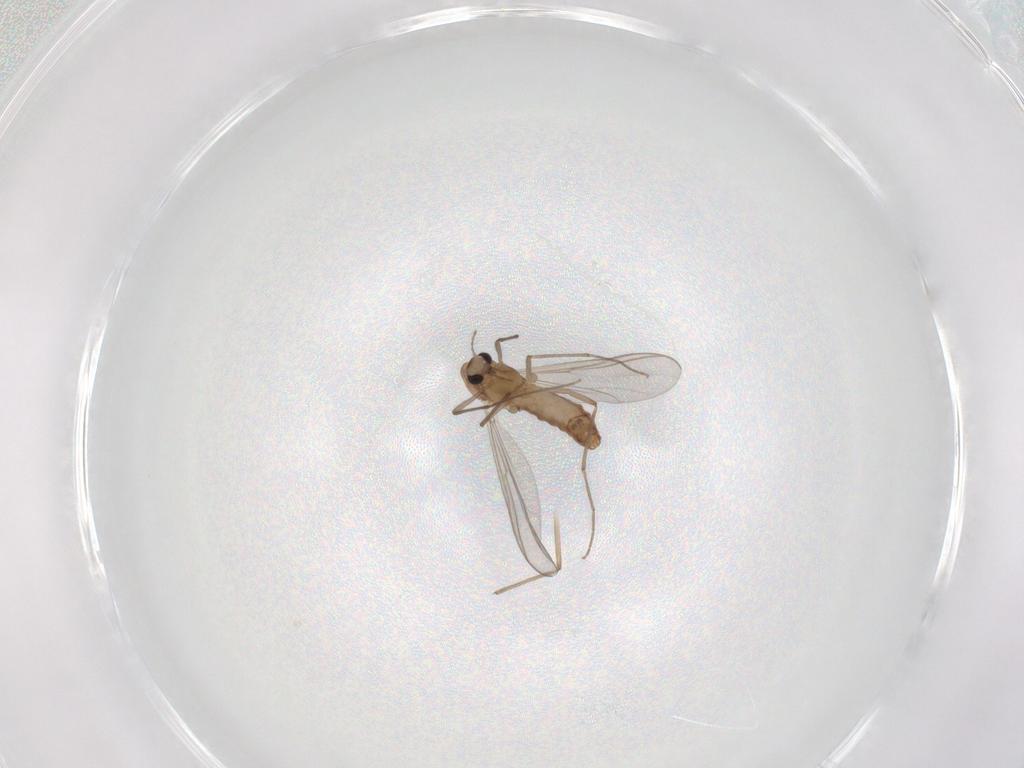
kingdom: Animalia
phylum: Arthropoda
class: Insecta
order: Diptera
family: Chironomidae
